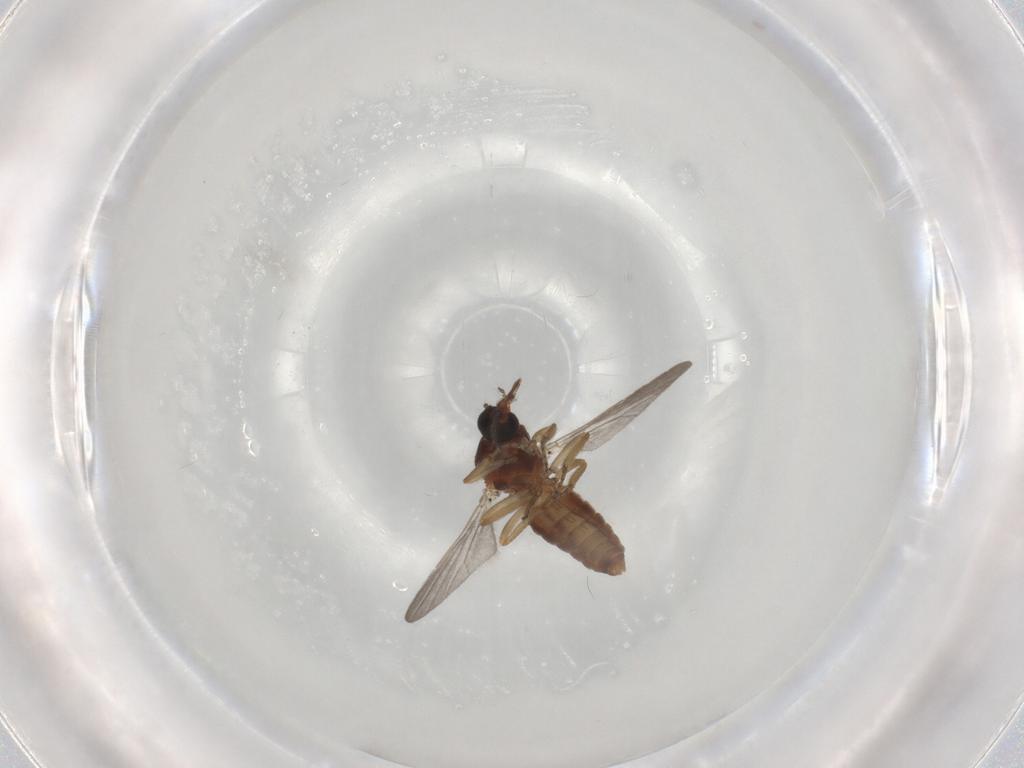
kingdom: Animalia
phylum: Arthropoda
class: Insecta
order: Diptera
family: Ceratopogonidae
